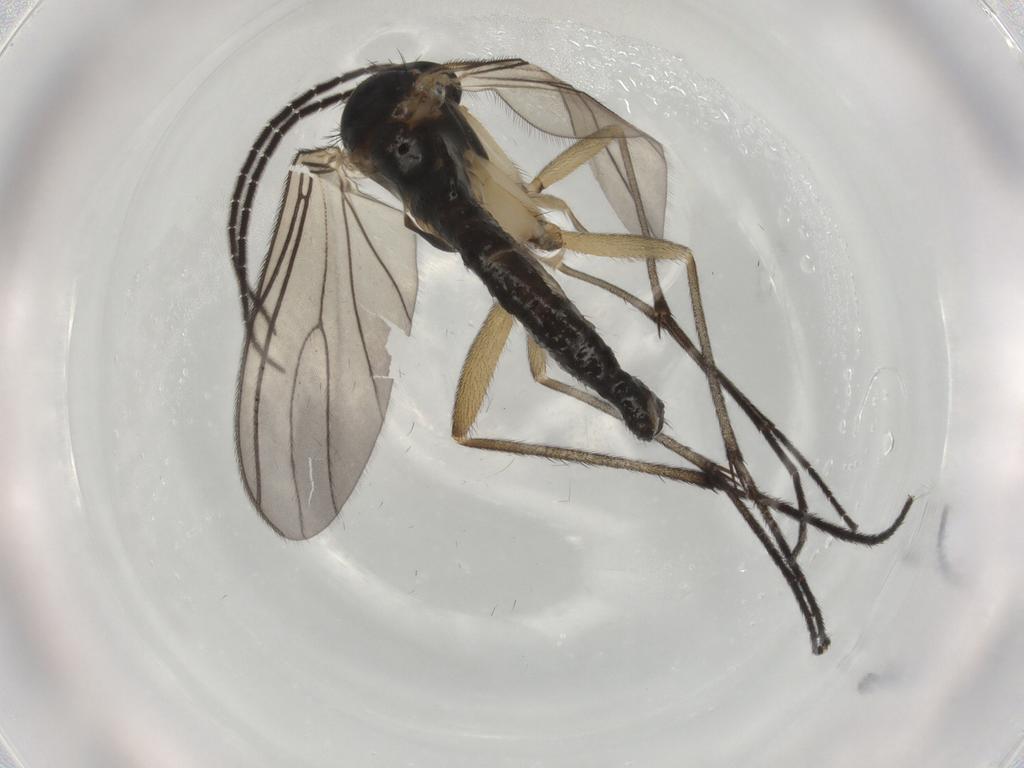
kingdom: Animalia
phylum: Arthropoda
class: Insecta
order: Diptera
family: Sciaridae
